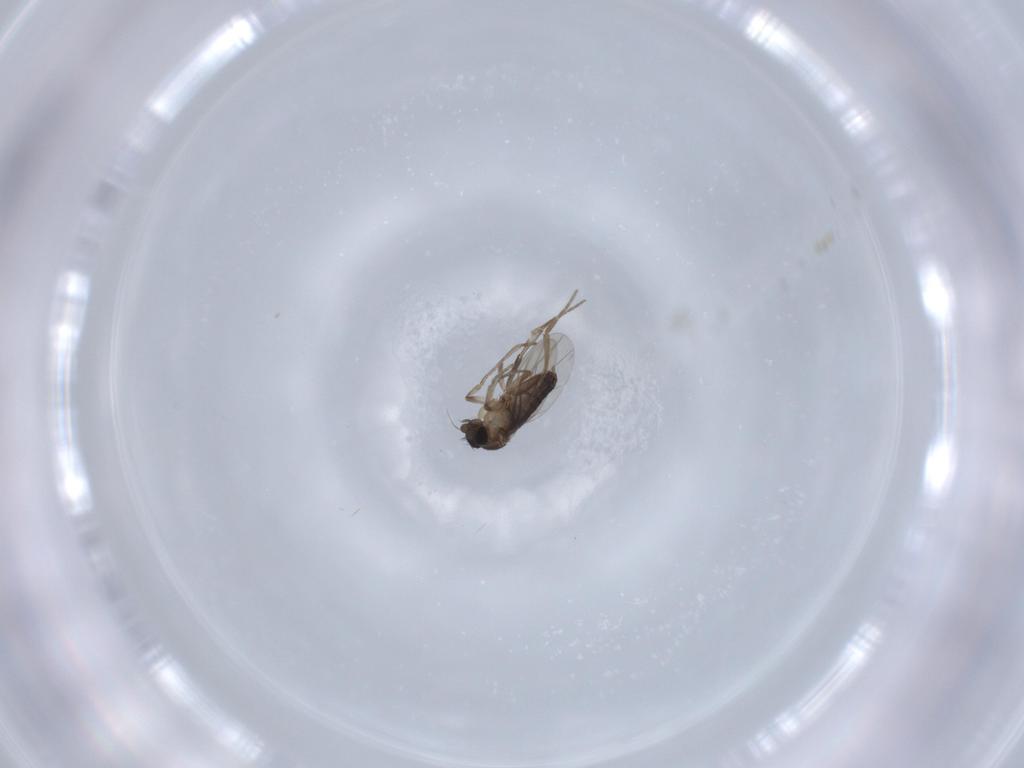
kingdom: Animalia
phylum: Arthropoda
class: Insecta
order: Diptera
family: Phoridae
